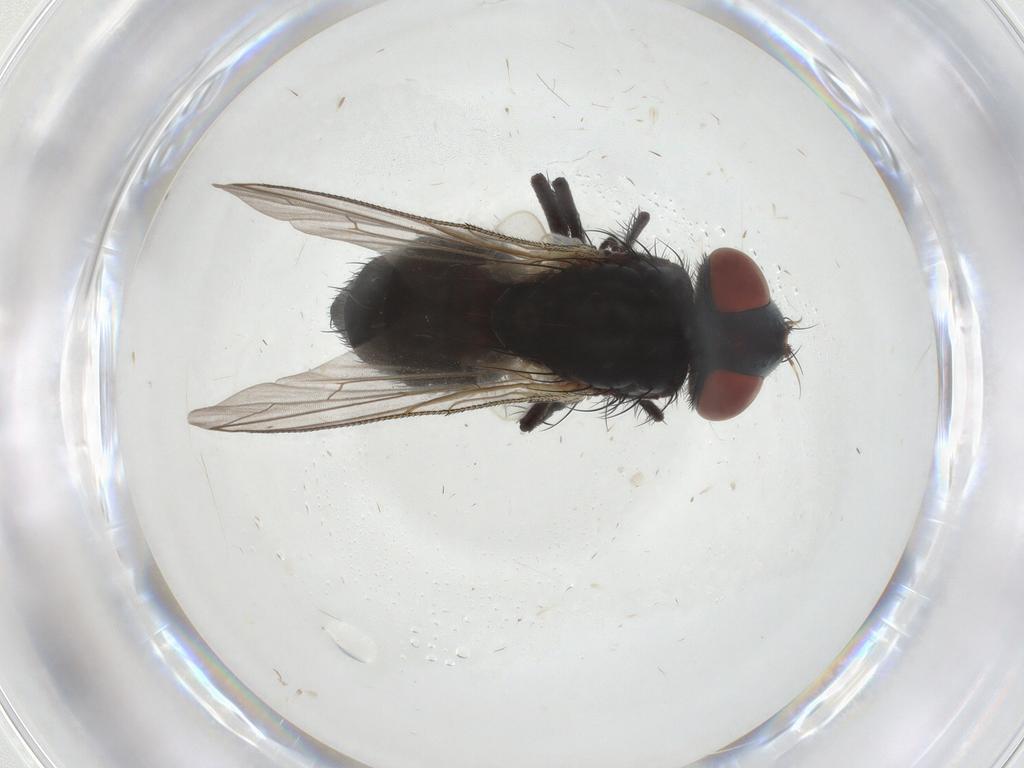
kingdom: Animalia
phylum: Arthropoda
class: Insecta
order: Diptera
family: Sarcophagidae
